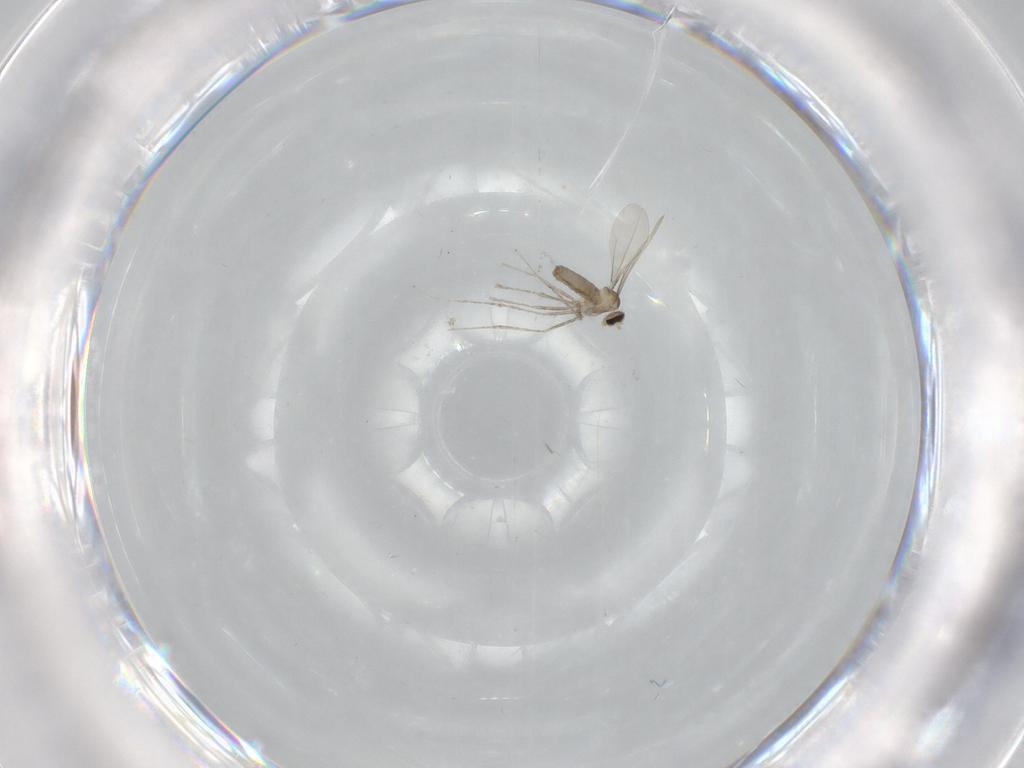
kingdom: Animalia
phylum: Arthropoda
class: Insecta
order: Diptera
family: Cecidomyiidae
